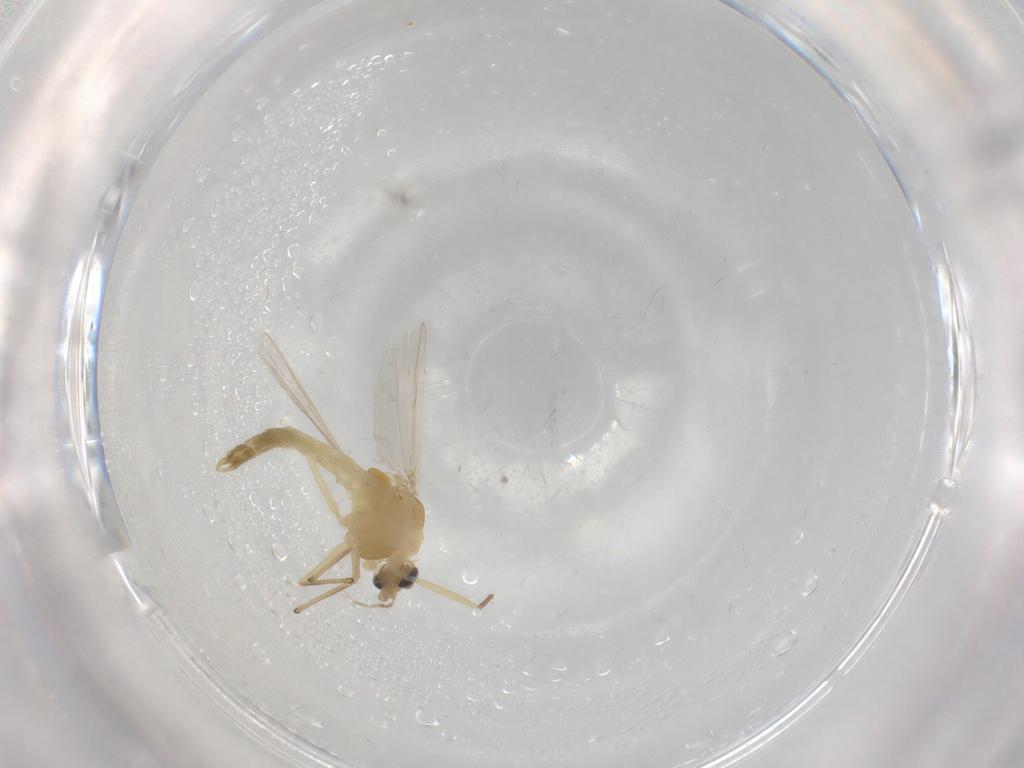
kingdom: Animalia
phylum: Arthropoda
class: Insecta
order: Diptera
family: Chironomidae
